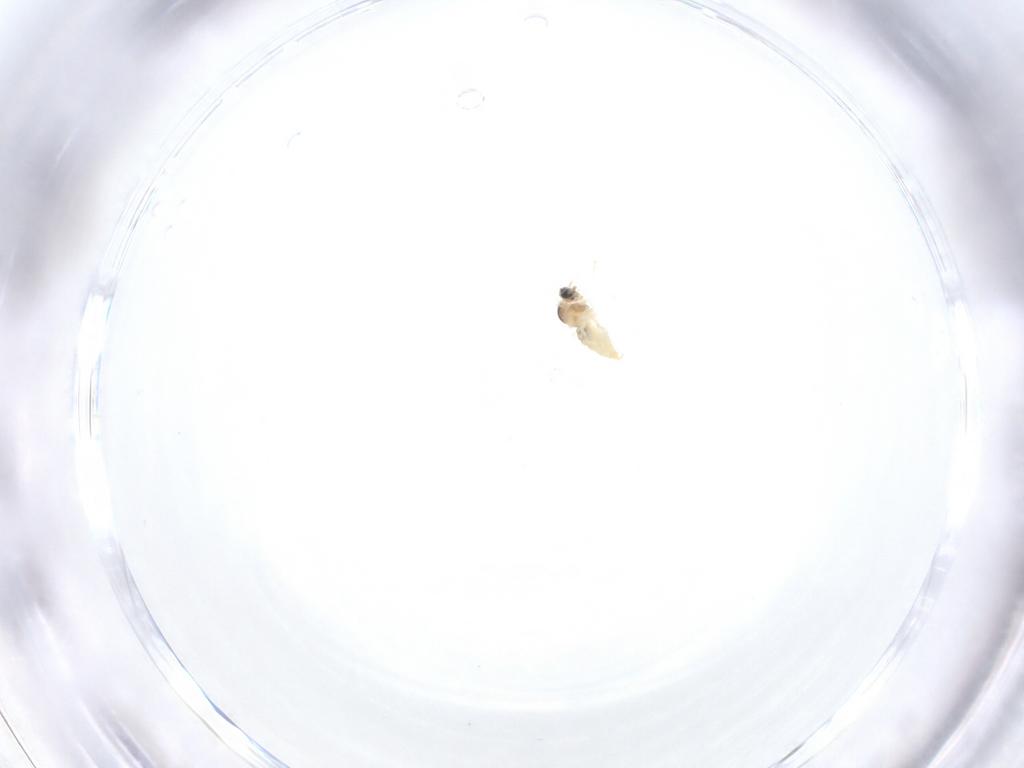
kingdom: Animalia
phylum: Arthropoda
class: Insecta
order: Diptera
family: Cecidomyiidae
